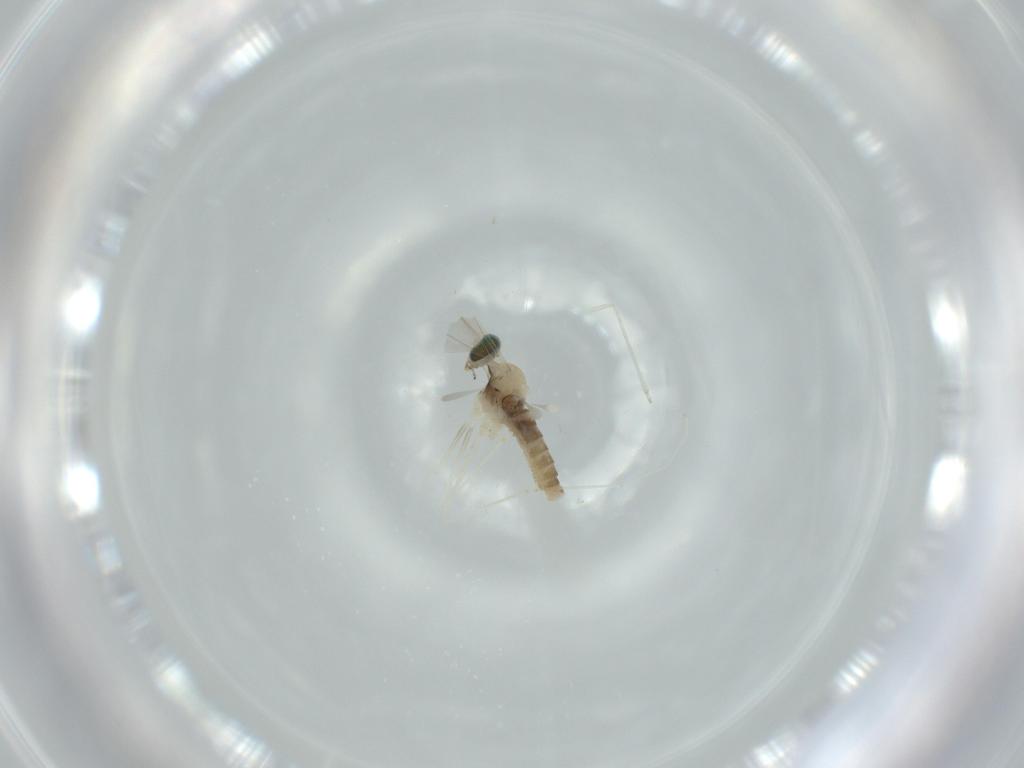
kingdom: Animalia
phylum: Arthropoda
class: Insecta
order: Diptera
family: Cecidomyiidae
